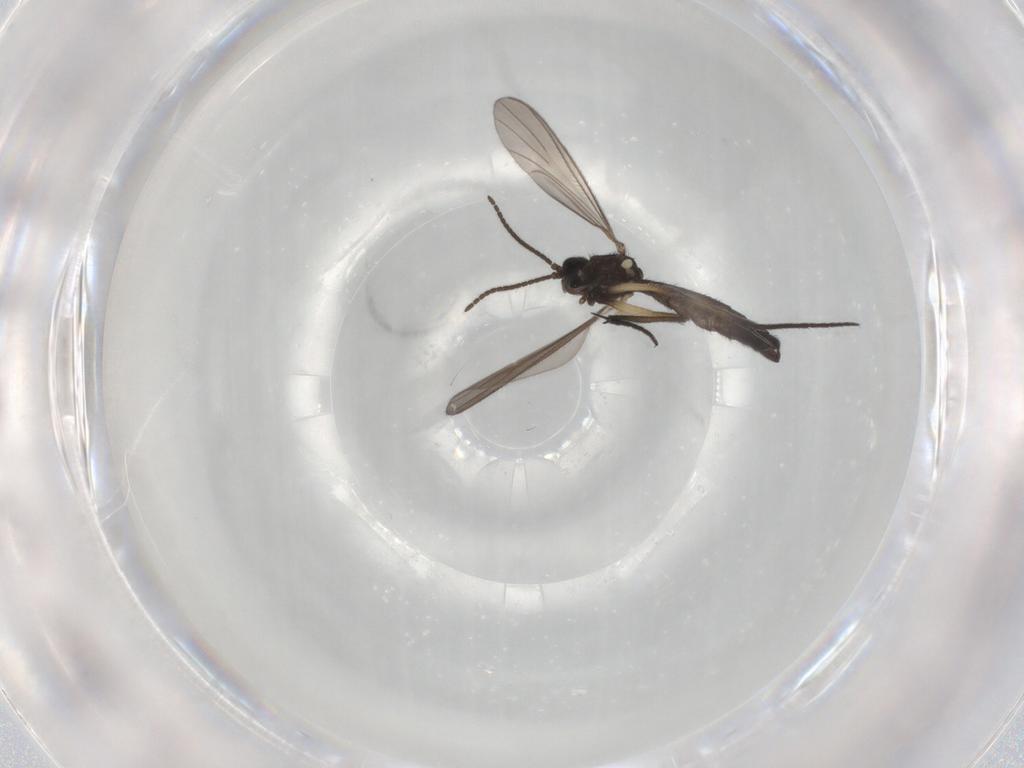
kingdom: Animalia
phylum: Arthropoda
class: Insecta
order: Diptera
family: Keroplatidae
